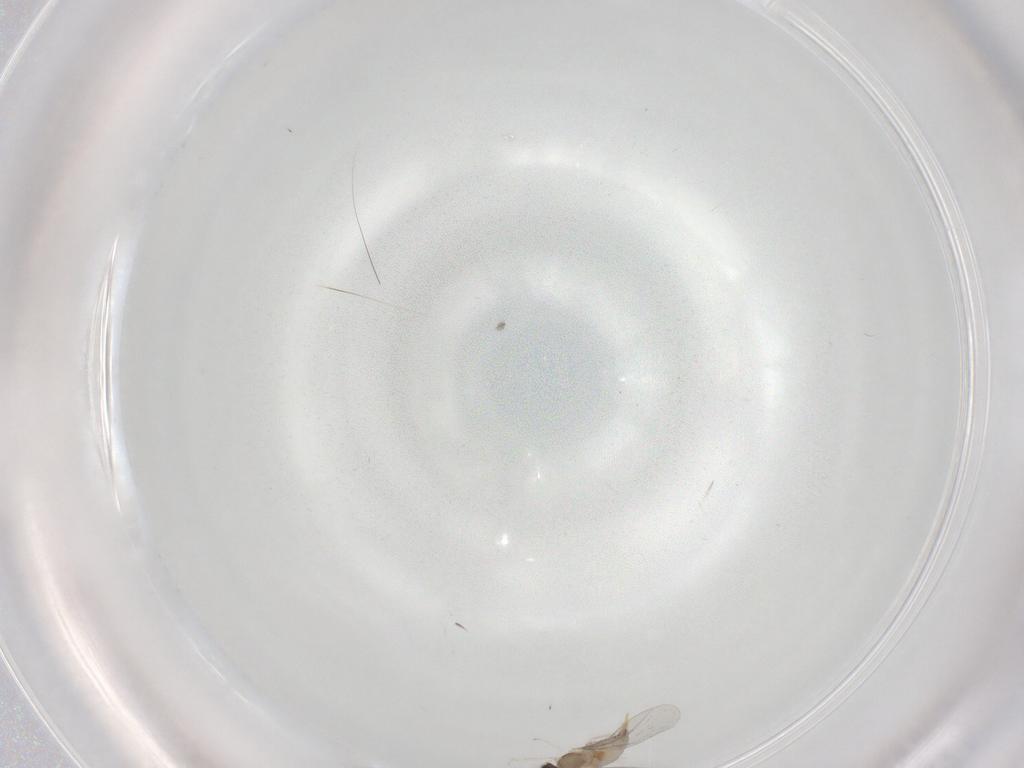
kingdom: Animalia
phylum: Arthropoda
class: Insecta
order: Diptera
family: Cecidomyiidae
